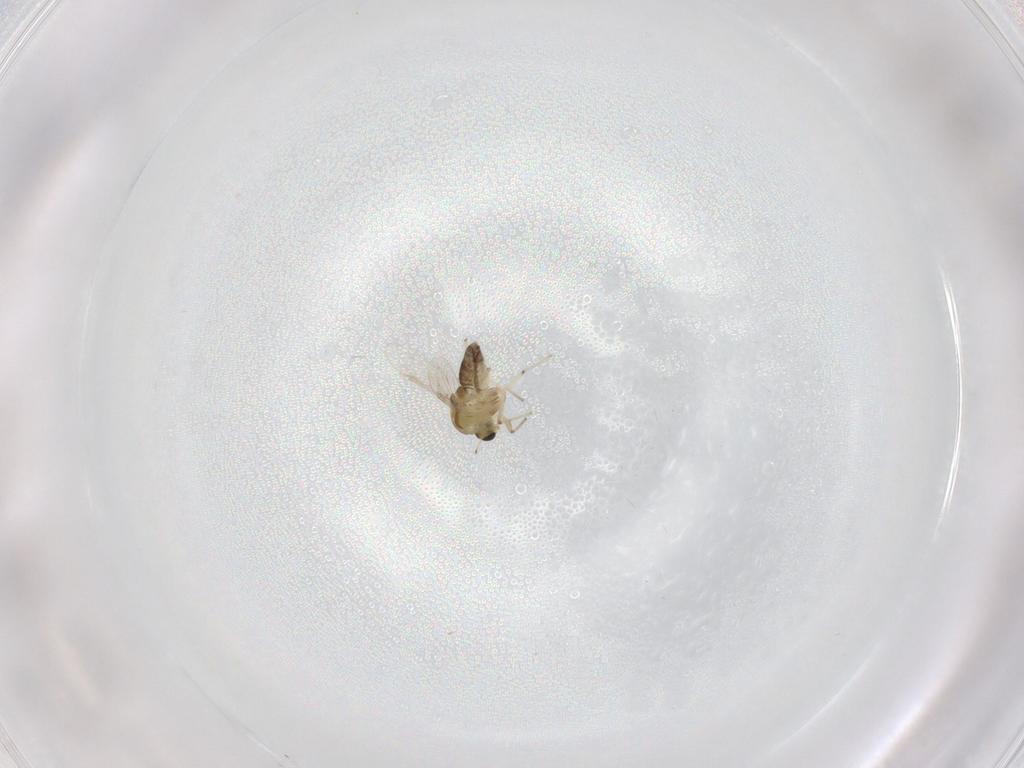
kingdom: Animalia
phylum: Arthropoda
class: Insecta
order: Diptera
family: Chironomidae
